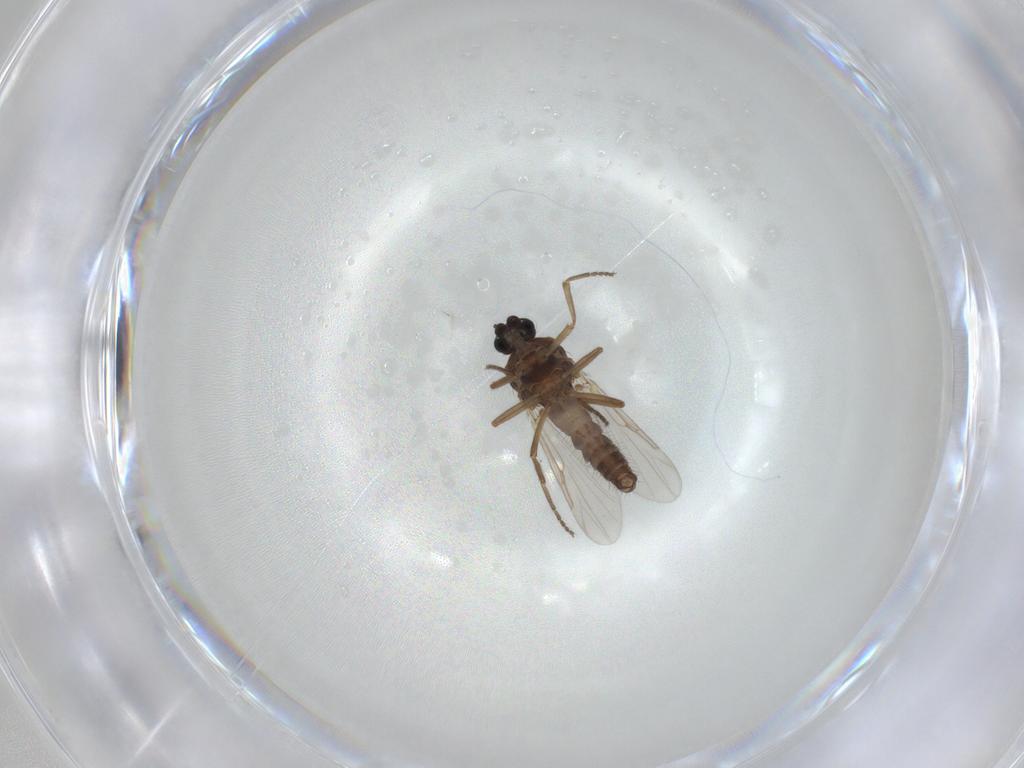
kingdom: Animalia
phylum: Arthropoda
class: Insecta
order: Diptera
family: Ceratopogonidae
